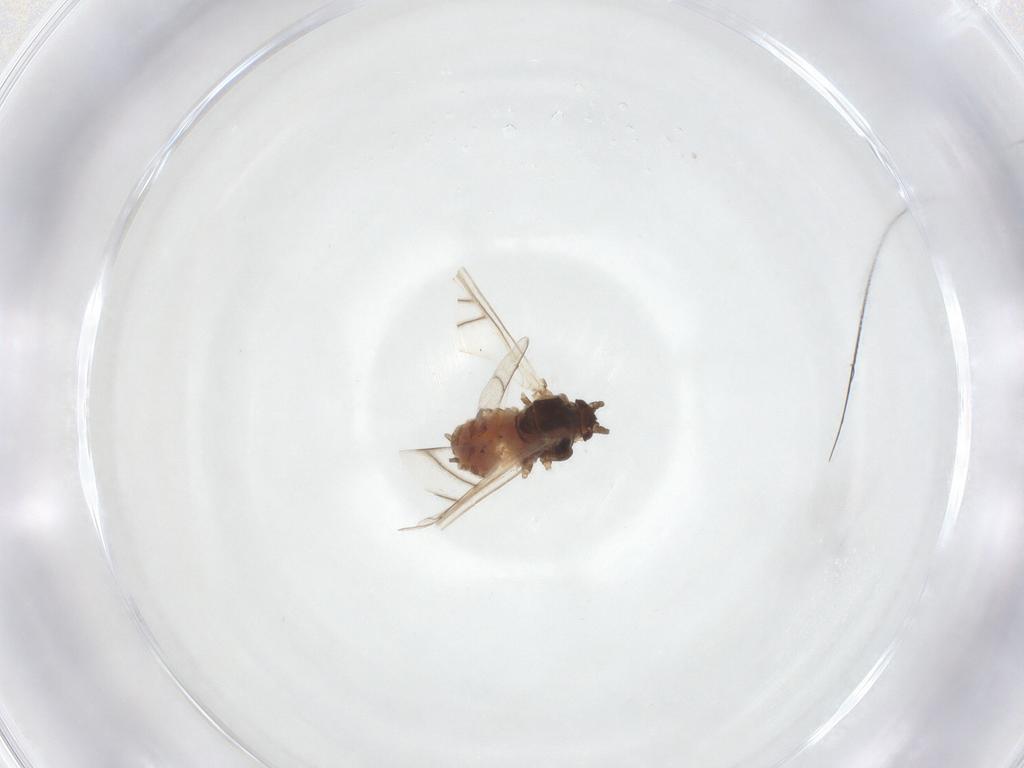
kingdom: Animalia
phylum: Arthropoda
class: Insecta
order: Hemiptera
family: Aphididae
